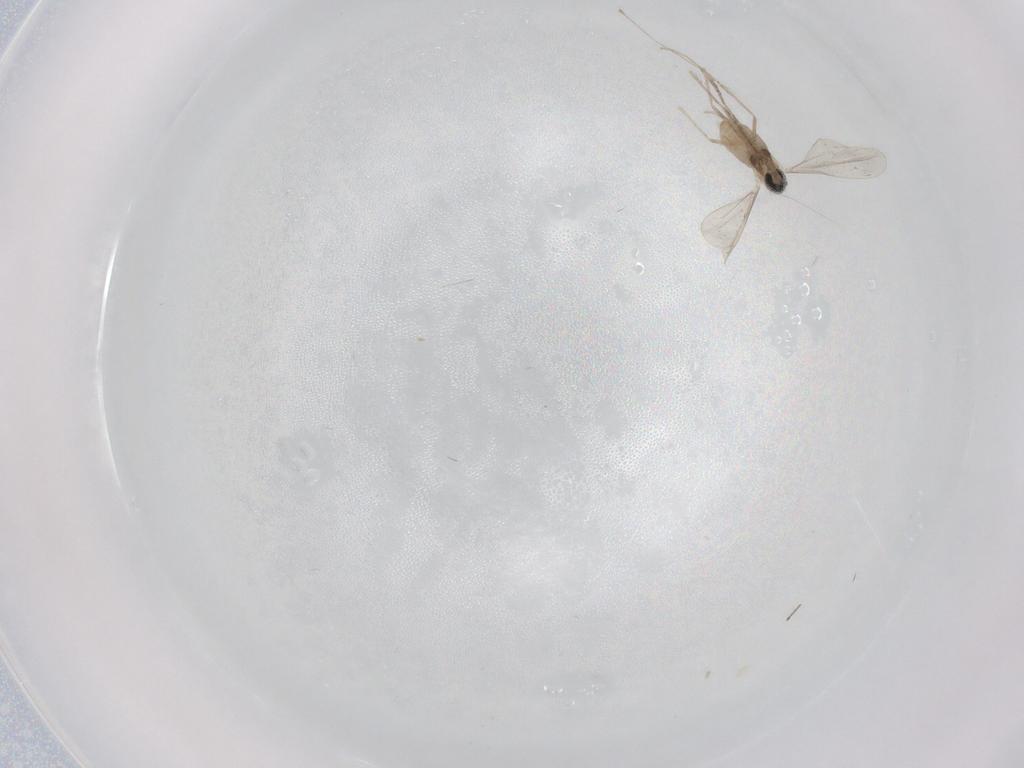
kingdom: Animalia
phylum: Arthropoda
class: Insecta
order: Diptera
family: Cecidomyiidae
